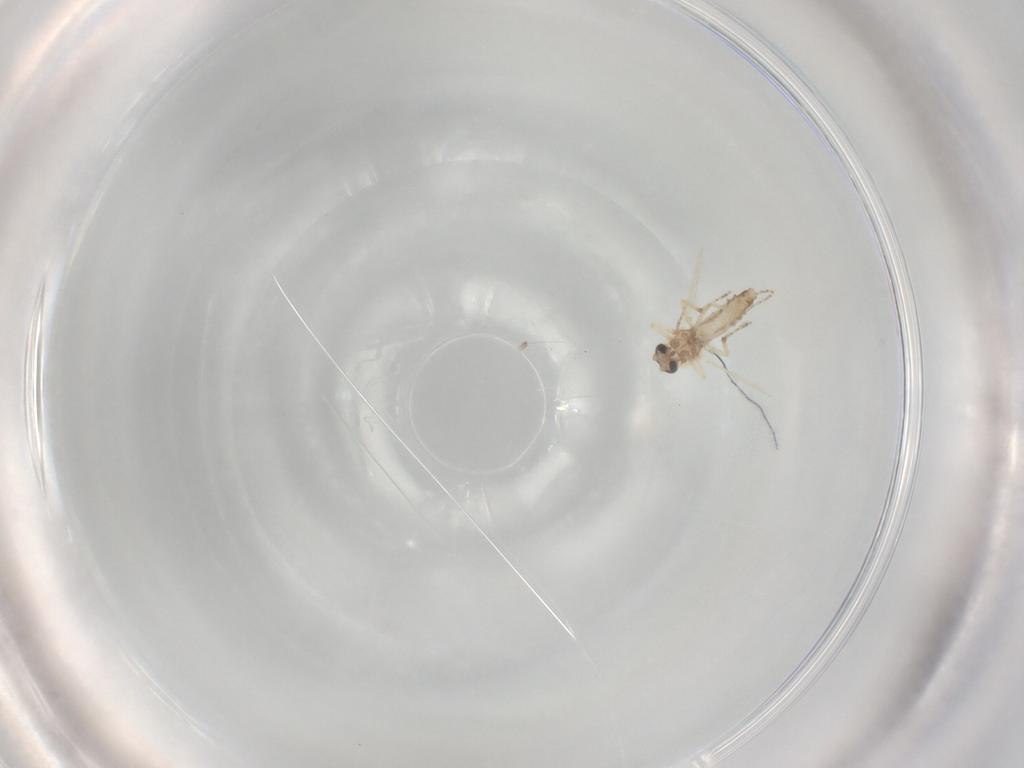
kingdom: Animalia
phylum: Arthropoda
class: Insecta
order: Diptera
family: Ceratopogonidae
